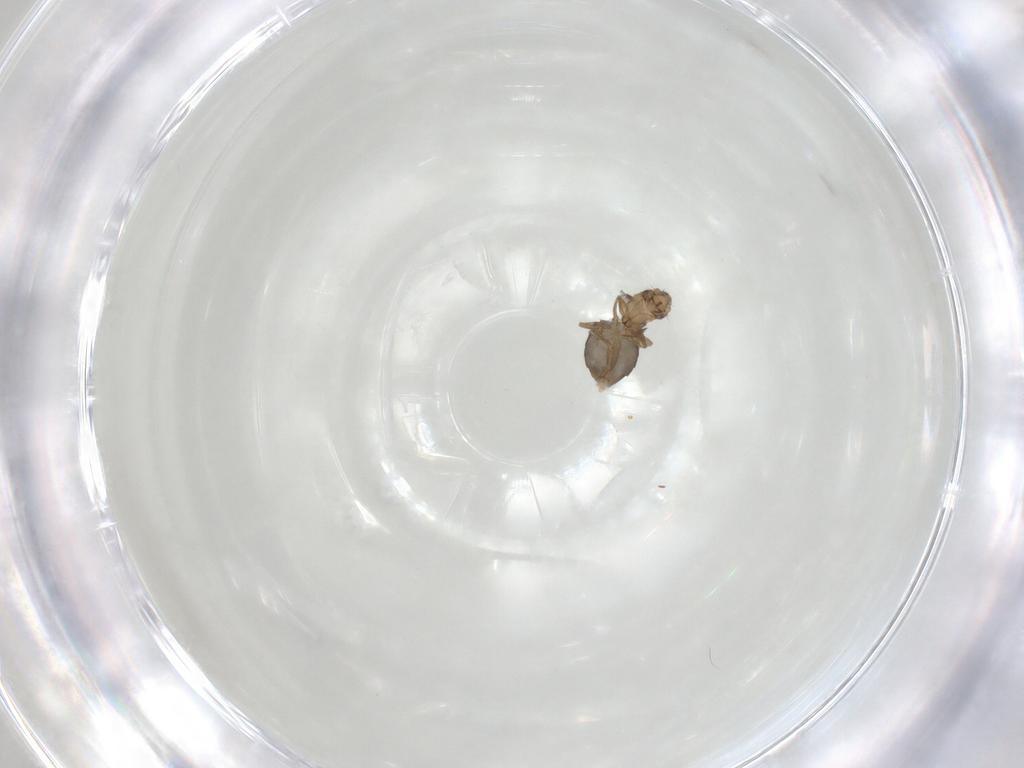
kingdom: Animalia
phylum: Arthropoda
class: Insecta
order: Diptera
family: Phoridae
